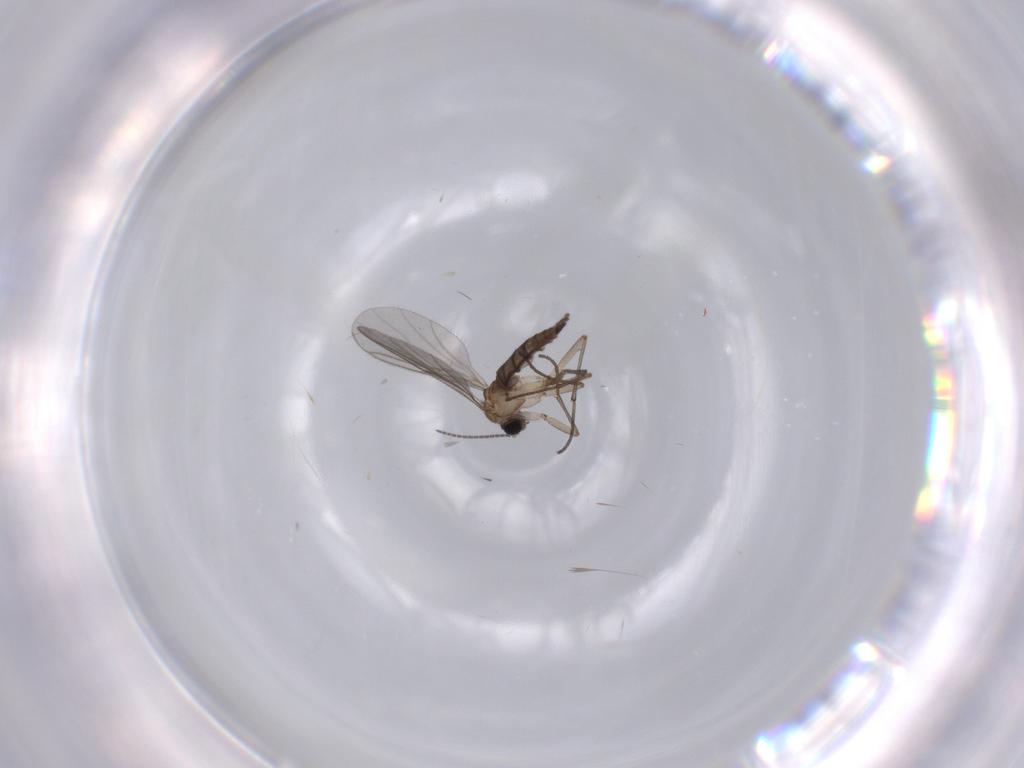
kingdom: Animalia
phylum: Arthropoda
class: Insecta
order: Diptera
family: Sciaridae
